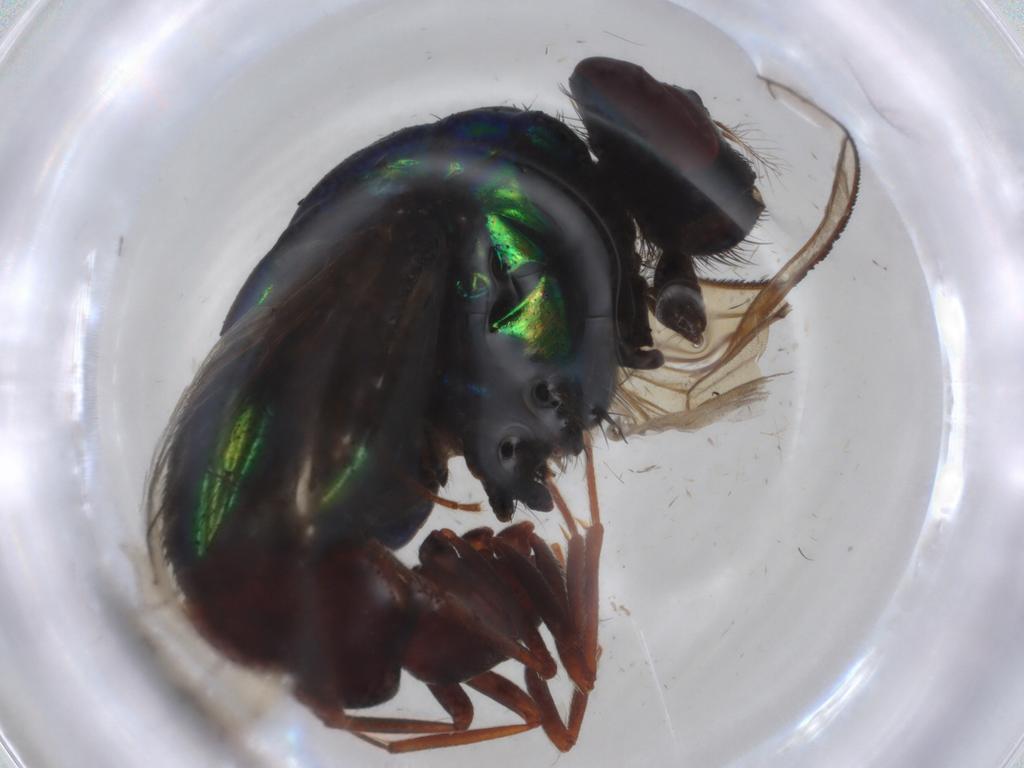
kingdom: Animalia
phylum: Arthropoda
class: Insecta
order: Diptera
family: Muscidae
